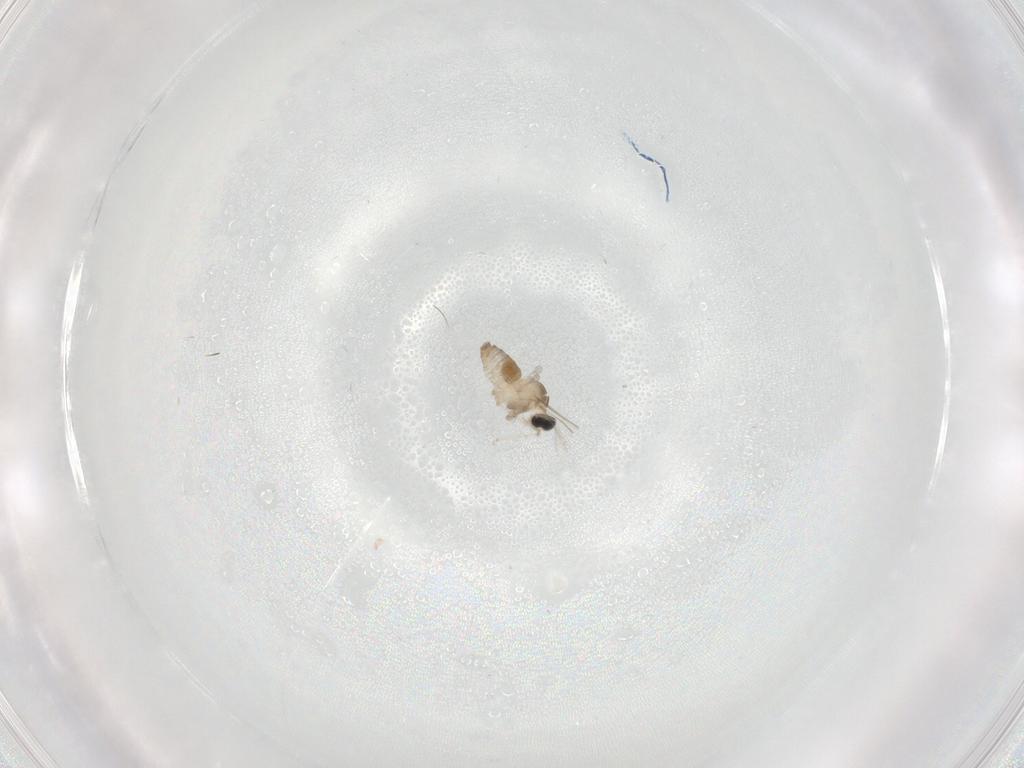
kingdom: Animalia
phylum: Arthropoda
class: Insecta
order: Diptera
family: Cecidomyiidae
